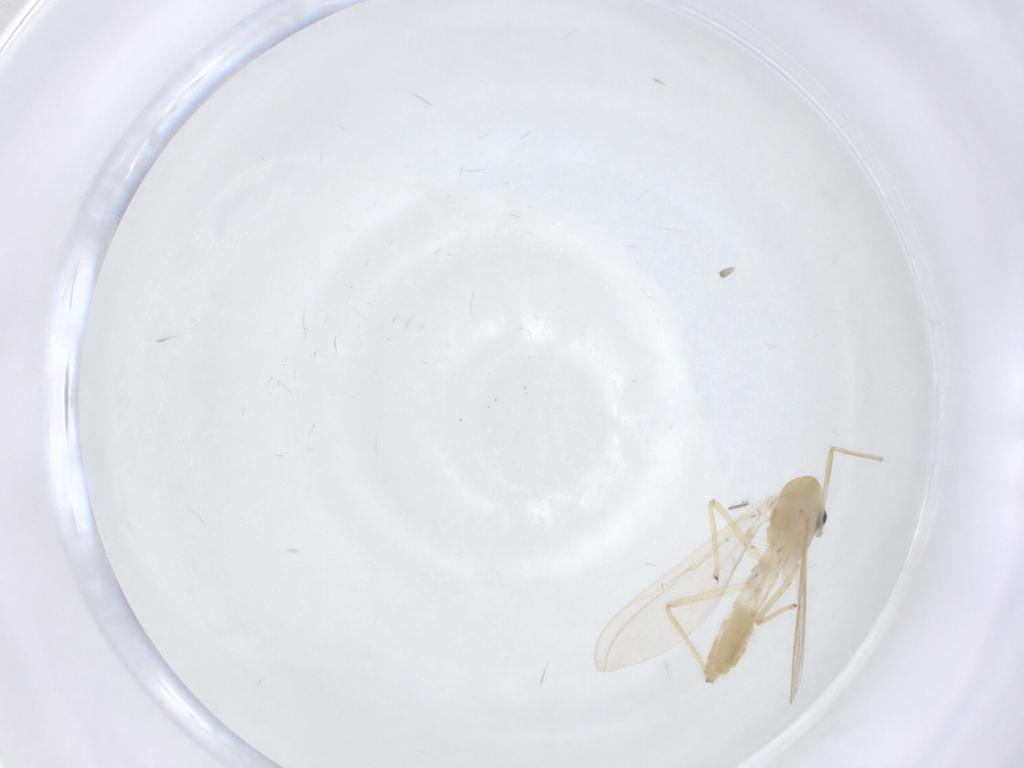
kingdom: Animalia
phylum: Arthropoda
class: Insecta
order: Diptera
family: Chironomidae
